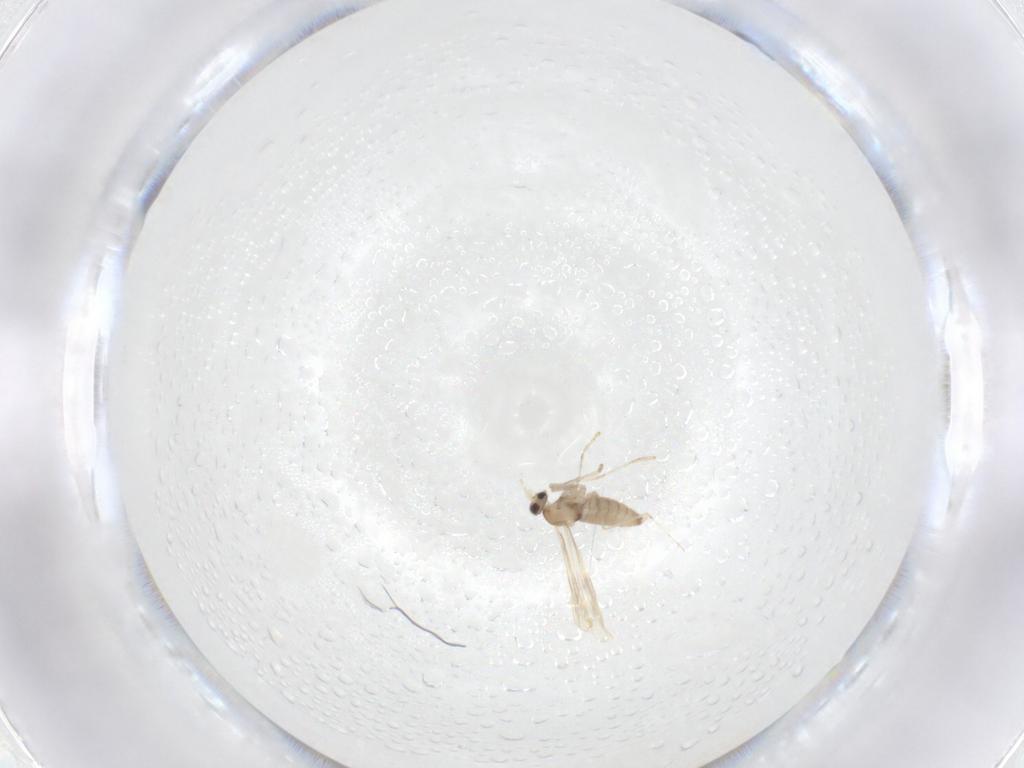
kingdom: Animalia
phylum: Arthropoda
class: Insecta
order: Diptera
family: Cecidomyiidae
